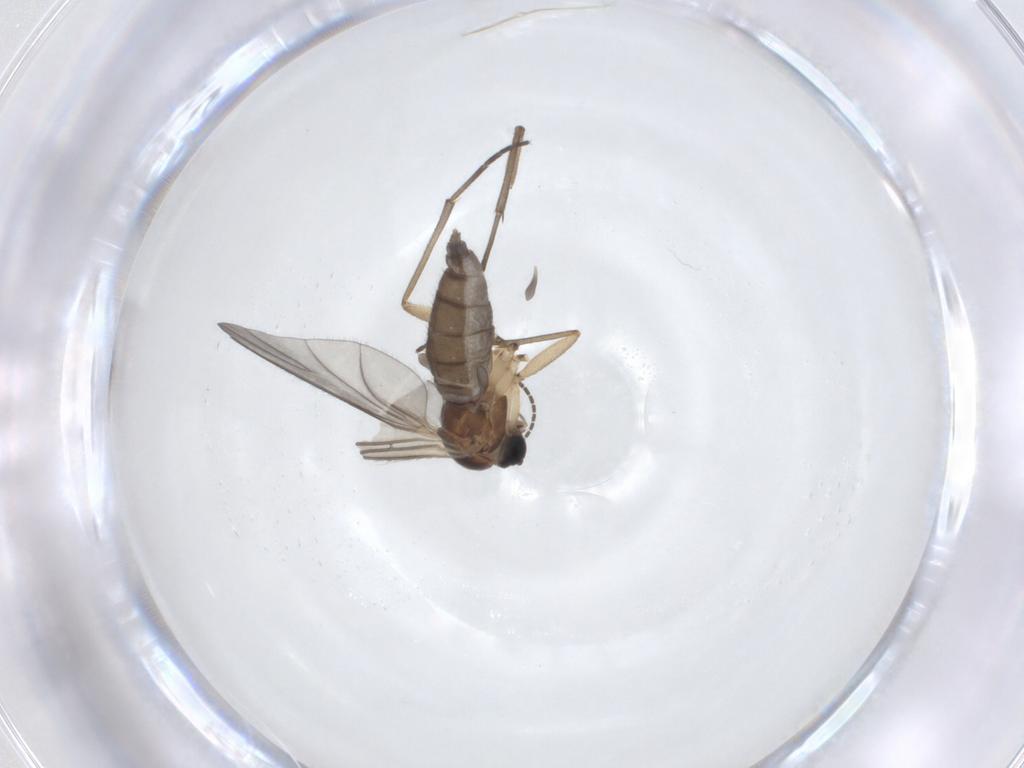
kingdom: Animalia
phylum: Arthropoda
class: Insecta
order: Diptera
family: Sciaridae
